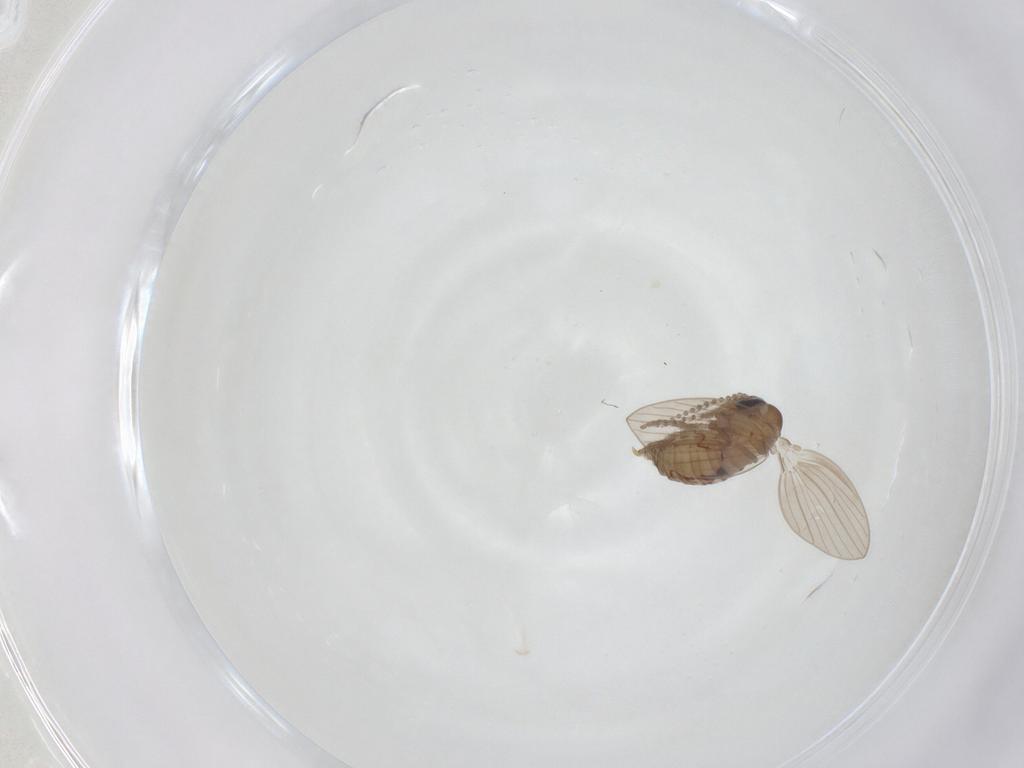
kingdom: Animalia
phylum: Arthropoda
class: Insecta
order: Diptera
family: Psychodidae
